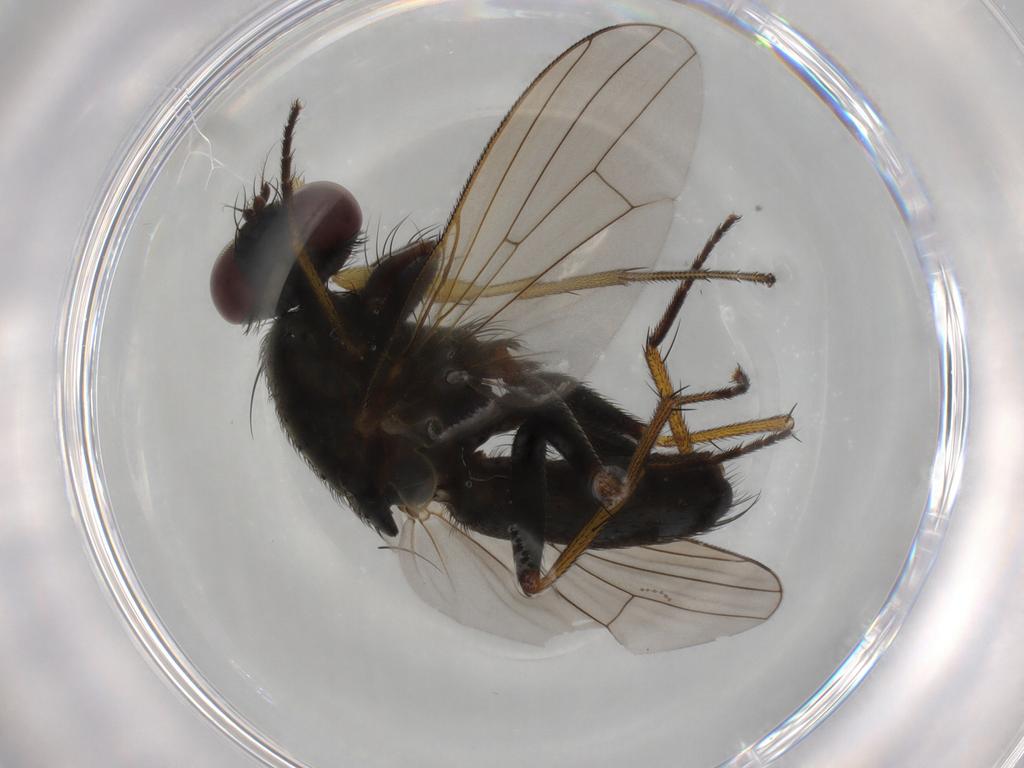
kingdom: Animalia
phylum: Arthropoda
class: Insecta
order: Diptera
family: Muscidae
